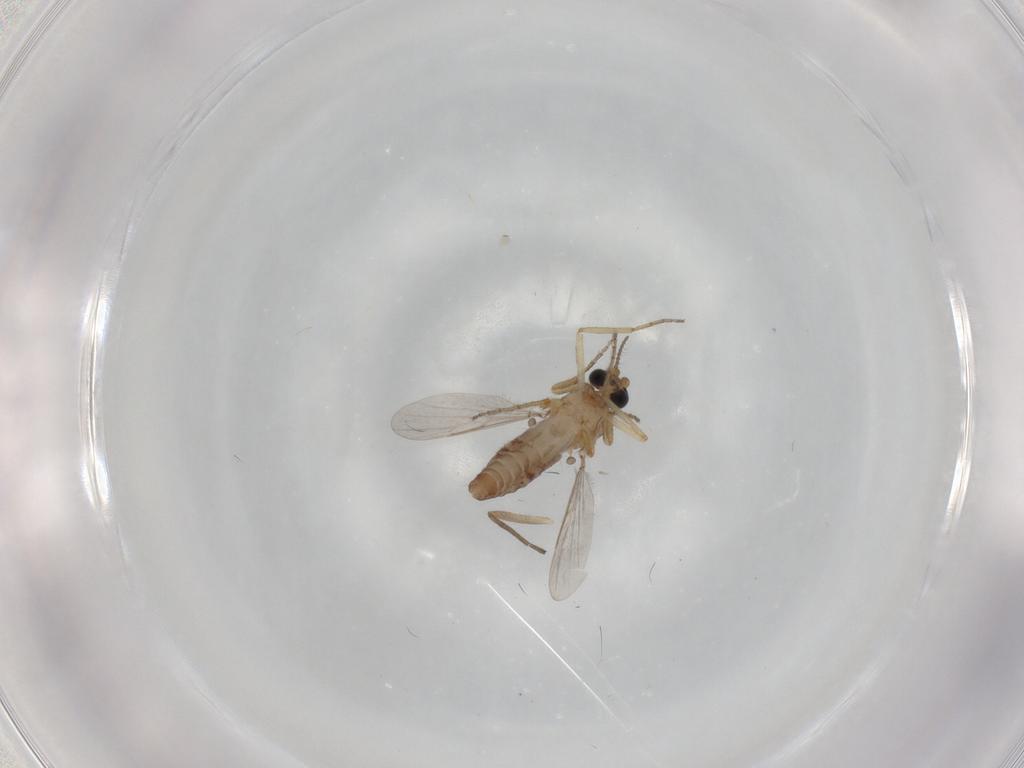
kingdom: Animalia
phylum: Arthropoda
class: Insecta
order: Diptera
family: Ceratopogonidae
